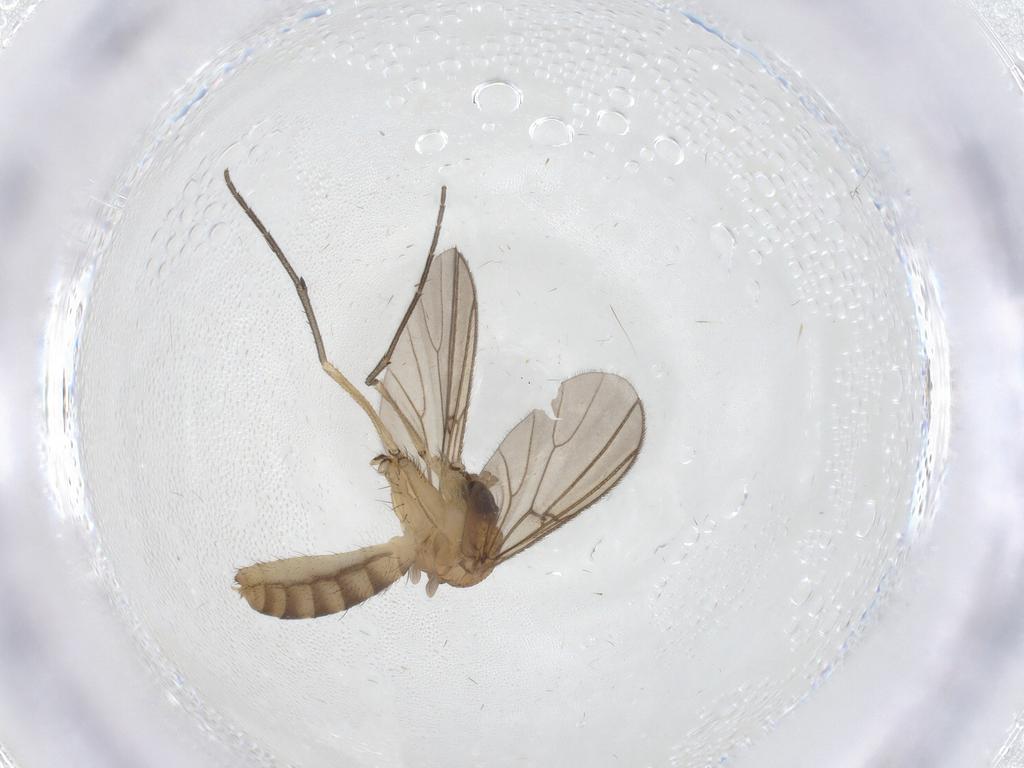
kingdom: Animalia
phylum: Arthropoda
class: Insecta
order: Diptera
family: Mycetophilidae
